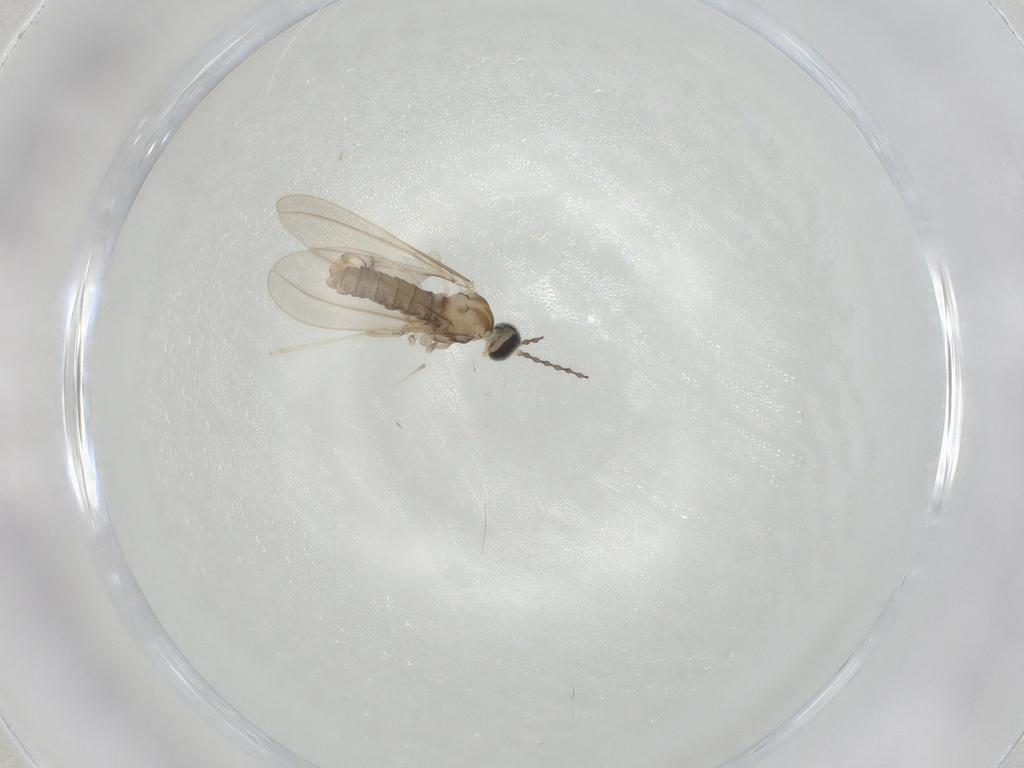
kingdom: Animalia
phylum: Arthropoda
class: Insecta
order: Diptera
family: Cecidomyiidae
